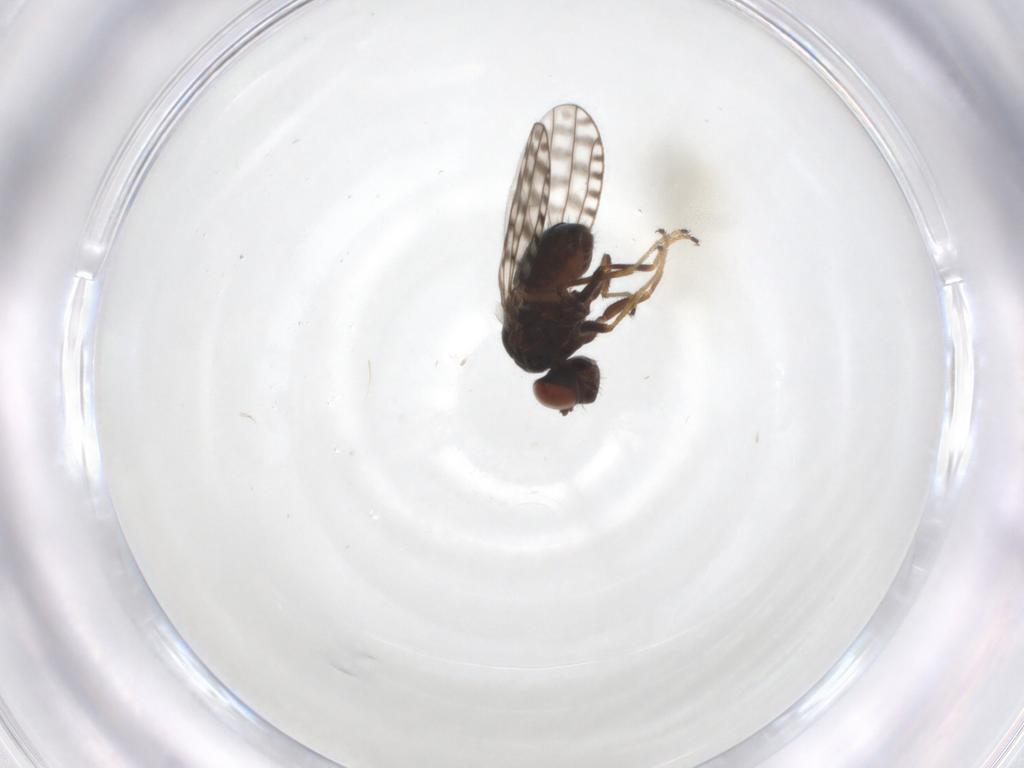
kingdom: Animalia
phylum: Arthropoda
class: Insecta
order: Diptera
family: Ephydridae
